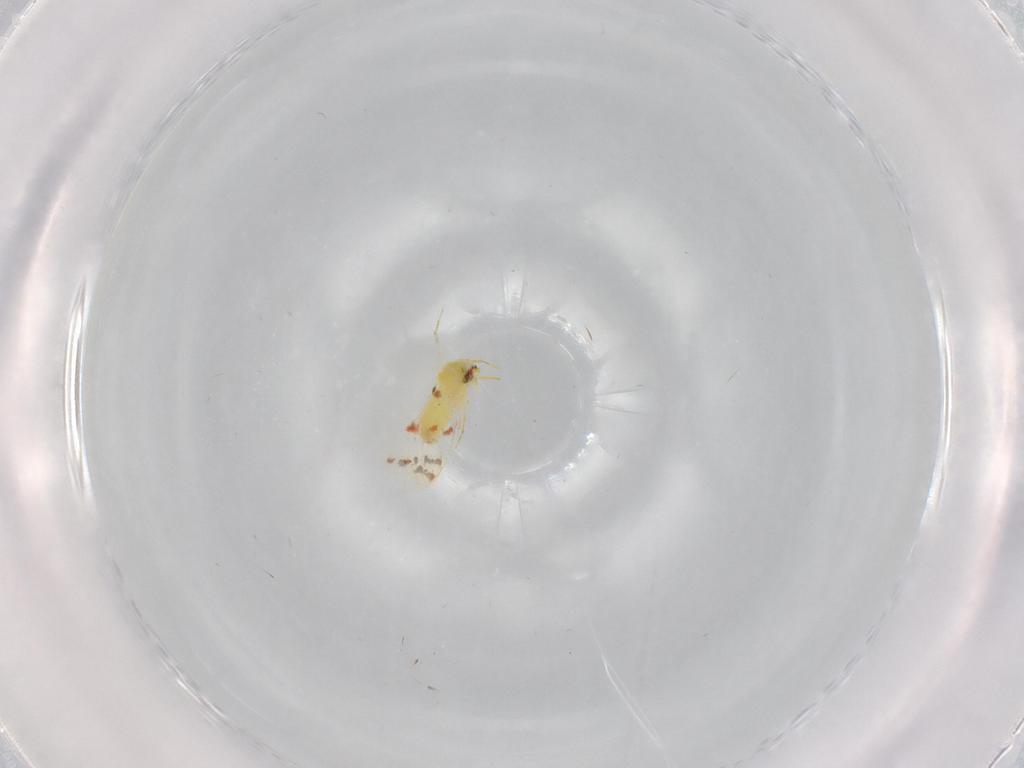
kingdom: Animalia
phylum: Arthropoda
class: Insecta
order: Hemiptera
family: Aleyrodidae
